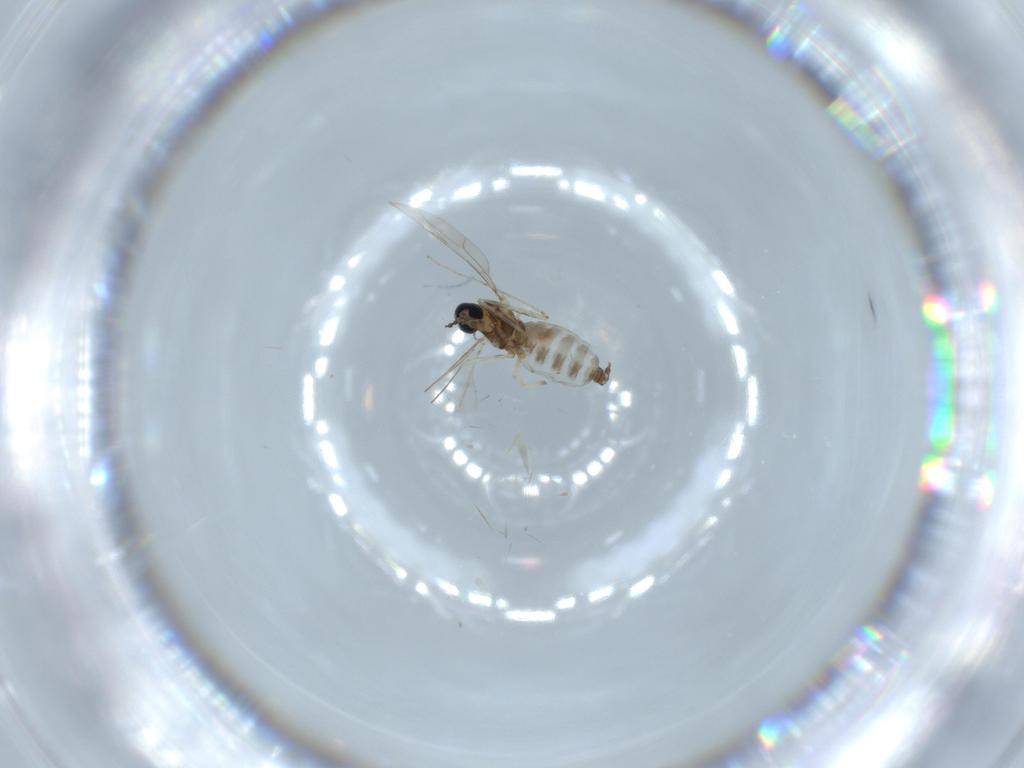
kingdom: Animalia
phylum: Arthropoda
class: Insecta
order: Diptera
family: Cecidomyiidae
